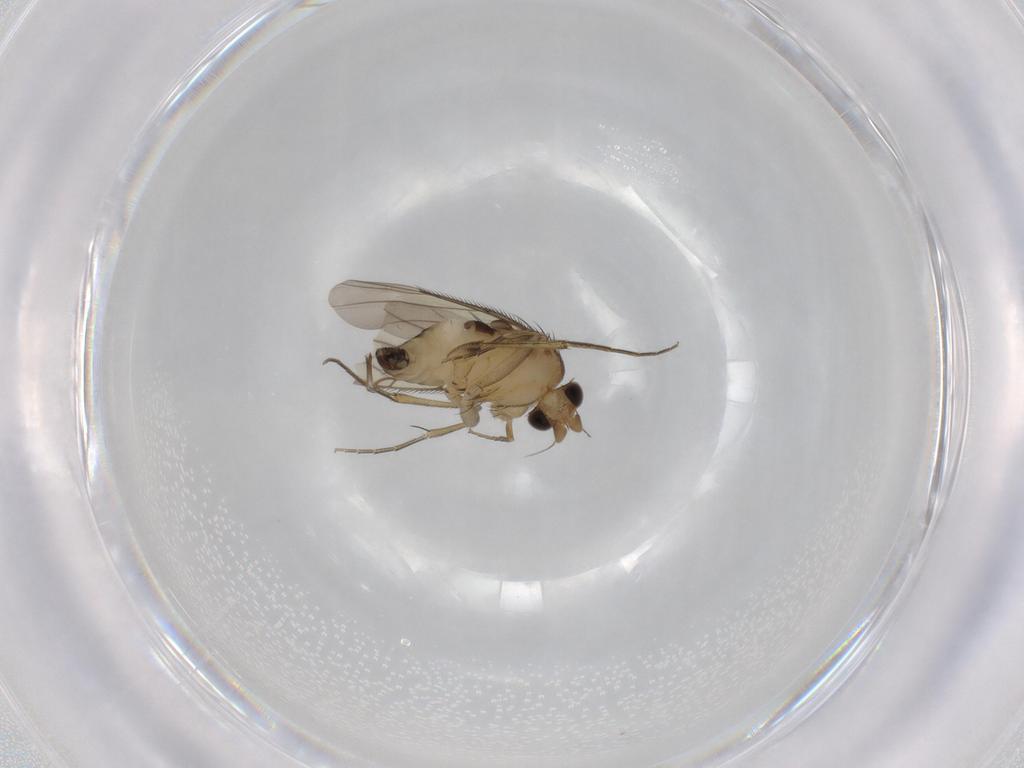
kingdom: Animalia
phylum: Arthropoda
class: Insecta
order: Diptera
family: Phoridae
